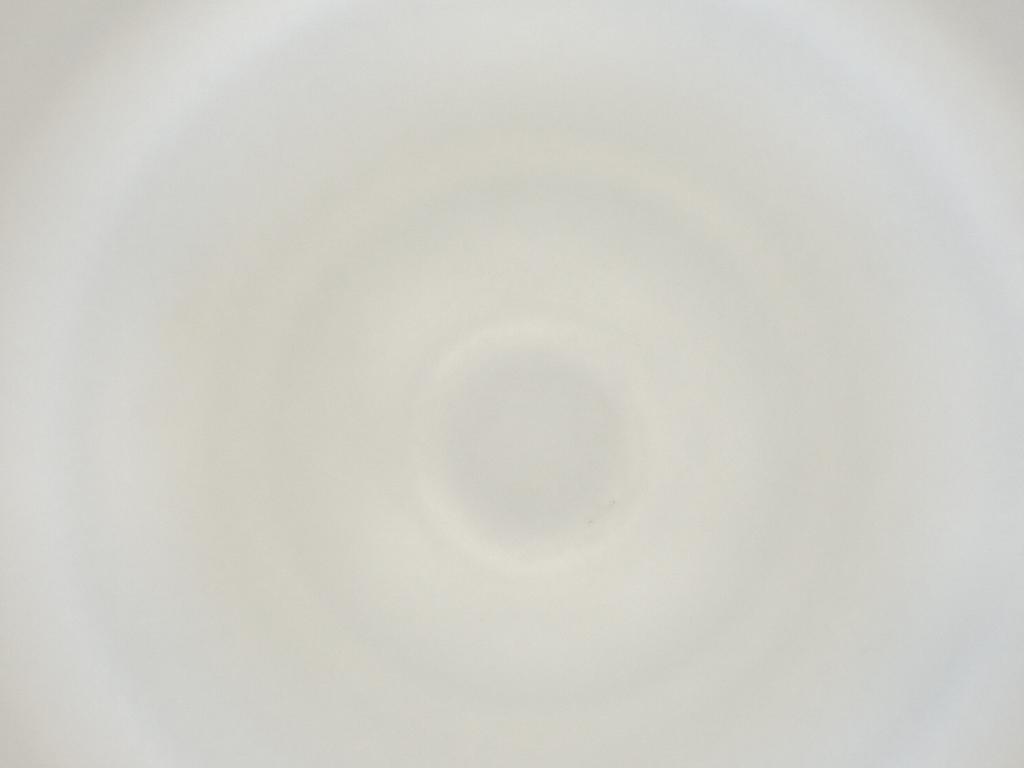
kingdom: Animalia
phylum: Arthropoda
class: Insecta
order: Diptera
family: Cecidomyiidae
